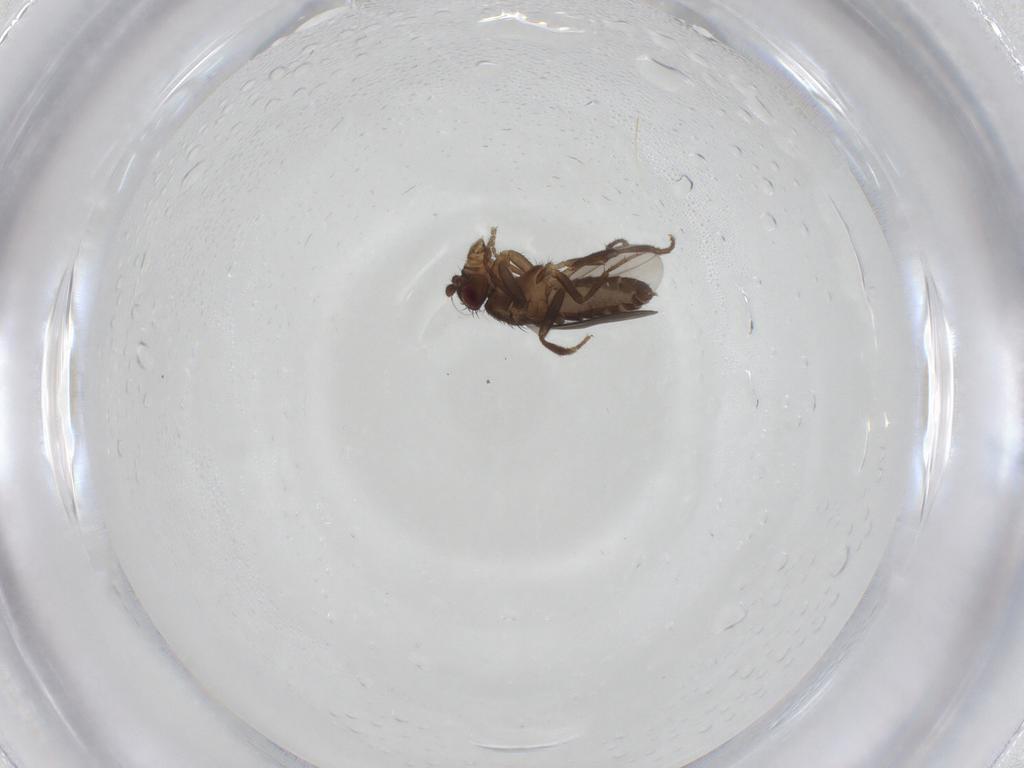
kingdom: Animalia
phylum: Arthropoda
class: Insecta
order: Diptera
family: Sphaeroceridae
